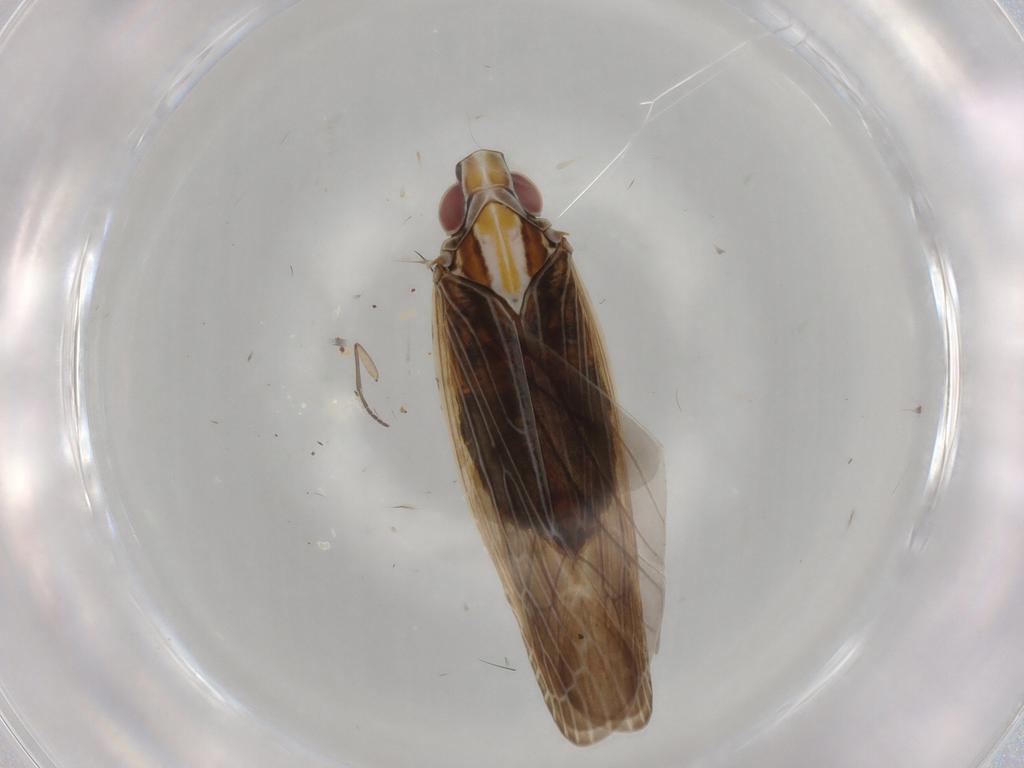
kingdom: Animalia
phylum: Arthropoda
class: Insecta
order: Hemiptera
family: Achilidae
